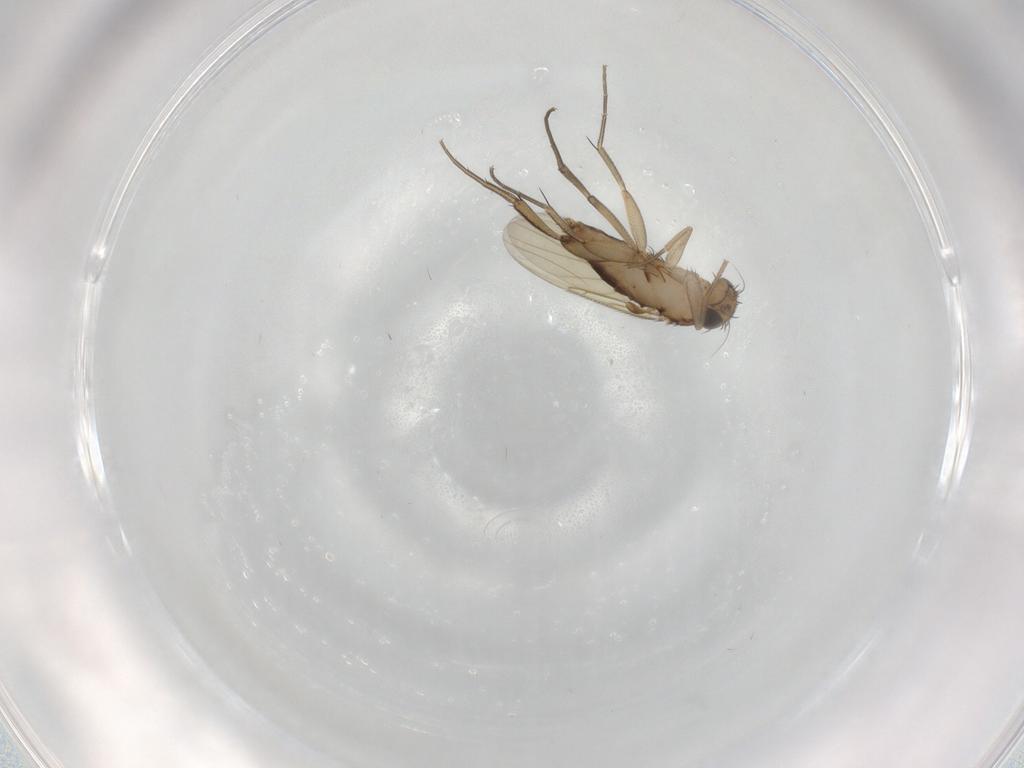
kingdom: Animalia
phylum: Arthropoda
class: Insecta
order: Diptera
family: Phoridae
